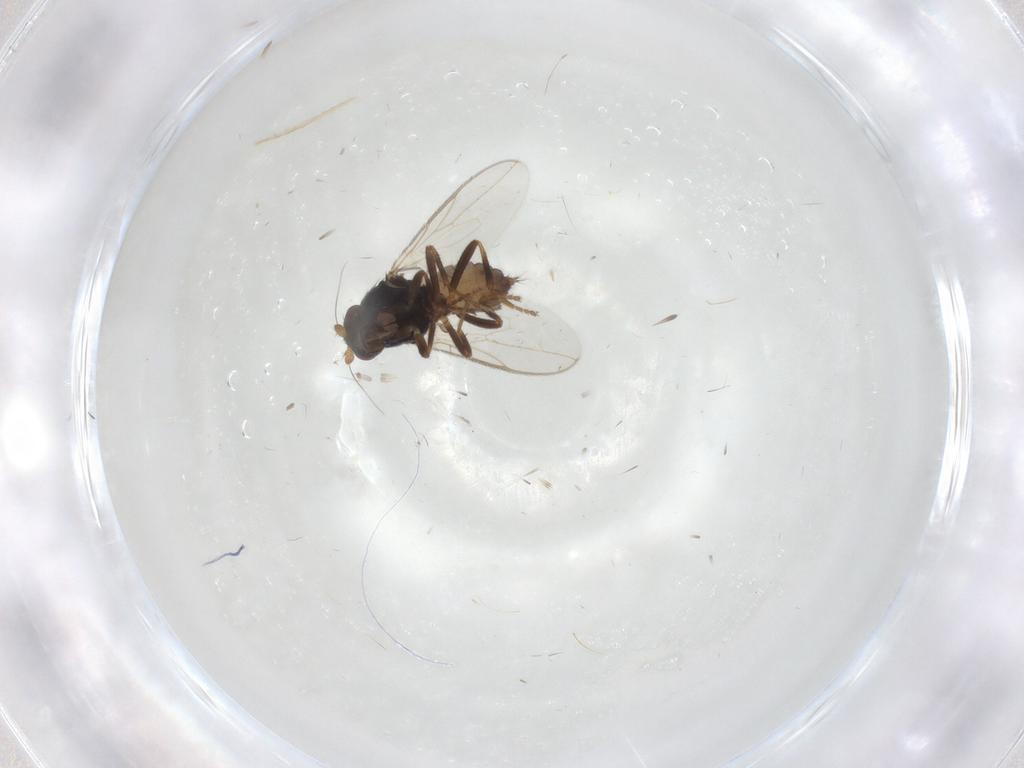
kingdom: Animalia
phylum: Arthropoda
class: Insecta
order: Diptera
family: Sphaeroceridae
